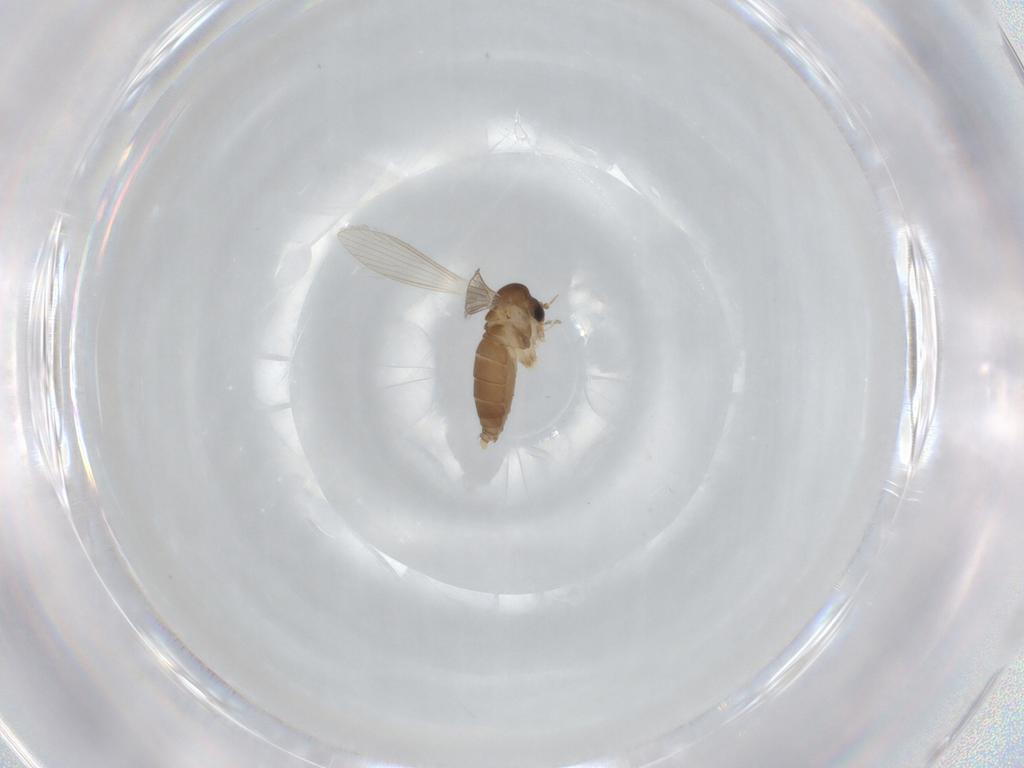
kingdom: Animalia
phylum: Arthropoda
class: Insecta
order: Diptera
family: Psychodidae
